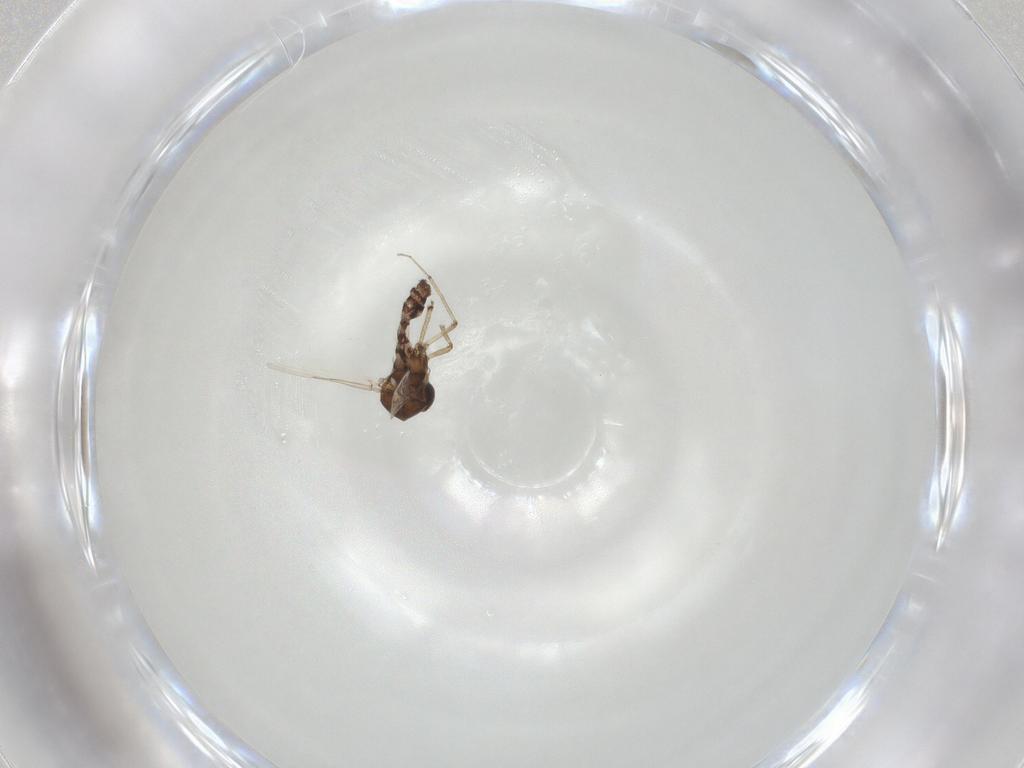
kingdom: Animalia
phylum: Arthropoda
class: Insecta
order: Diptera
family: Ceratopogonidae
